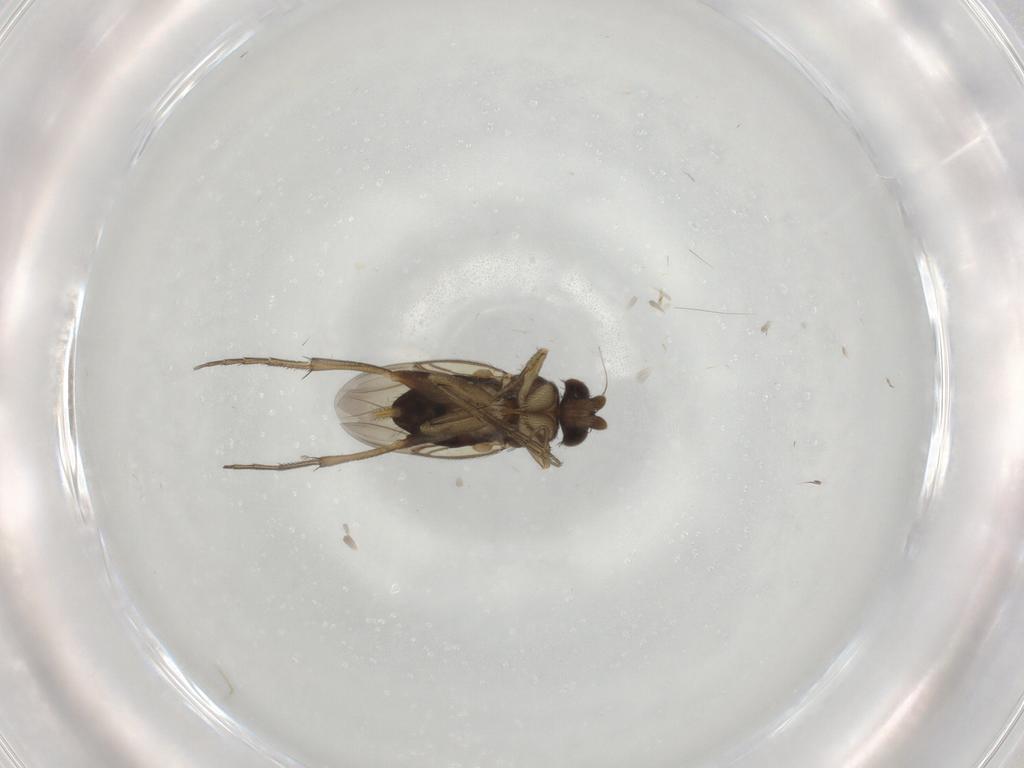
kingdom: Animalia
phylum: Arthropoda
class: Insecta
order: Diptera
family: Phoridae
